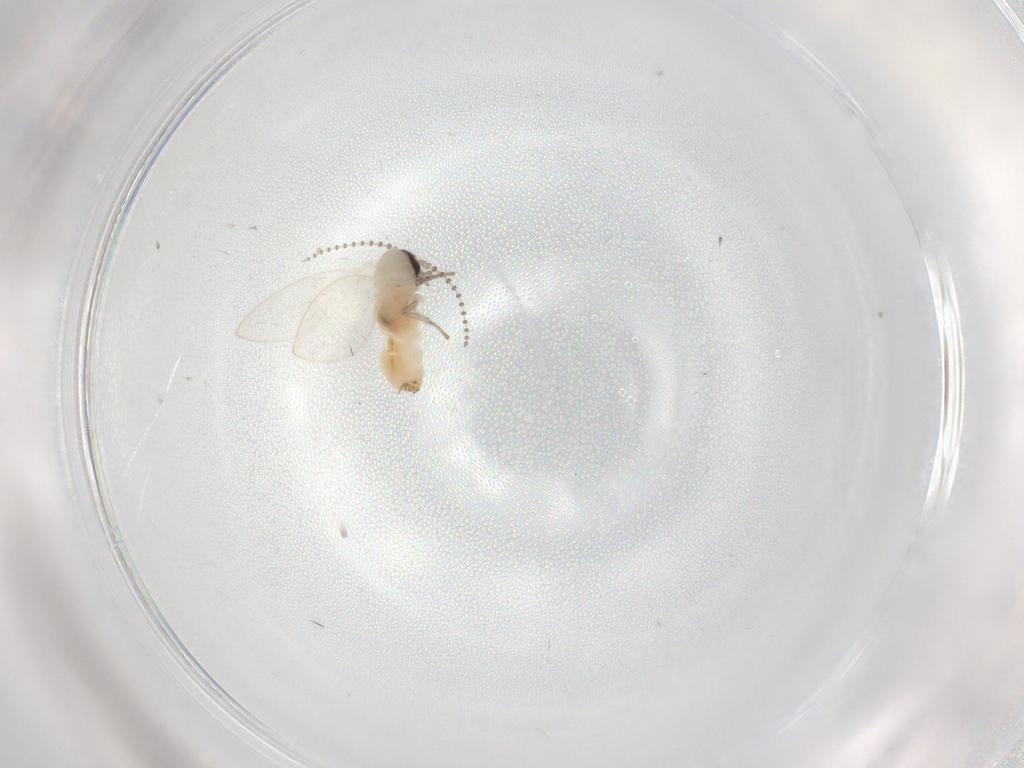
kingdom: Animalia
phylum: Arthropoda
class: Insecta
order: Diptera
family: Psychodidae
